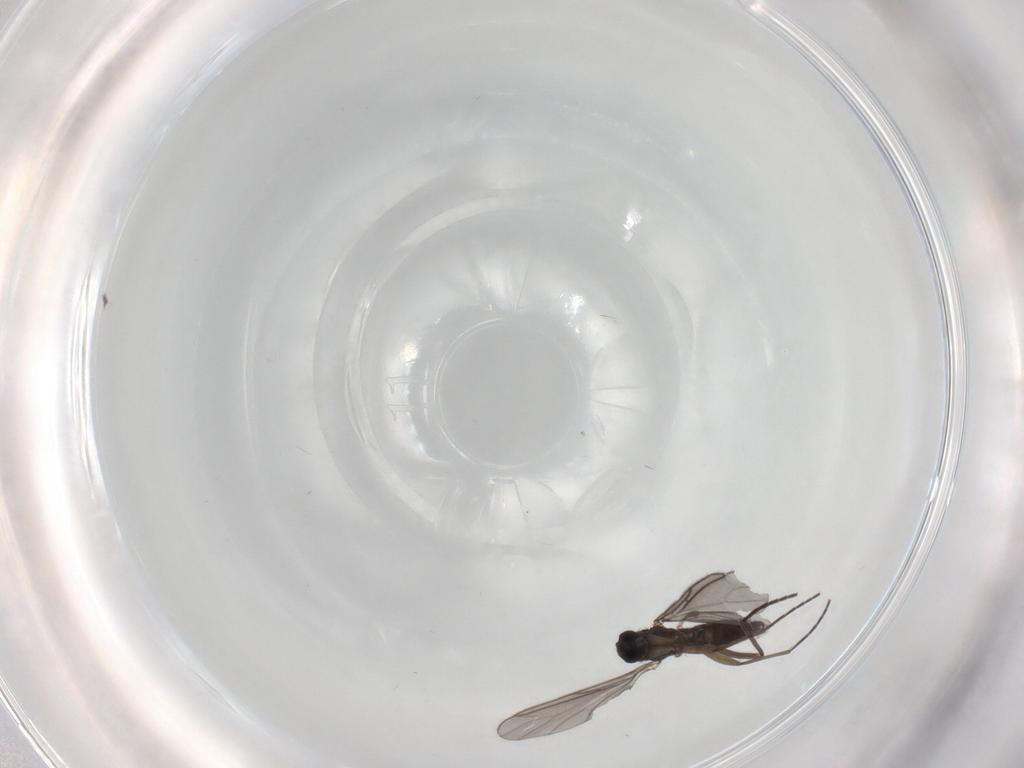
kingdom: Animalia
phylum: Arthropoda
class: Insecta
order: Diptera
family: Sciaridae
